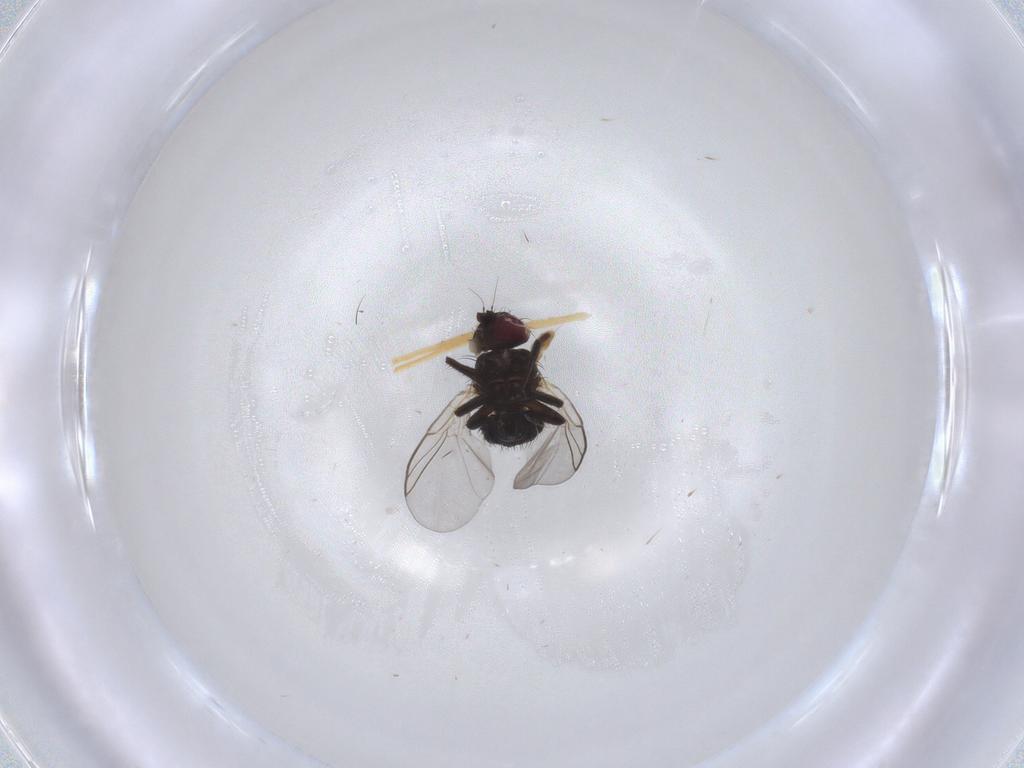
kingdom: Animalia
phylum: Arthropoda
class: Insecta
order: Diptera
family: Agromyzidae
